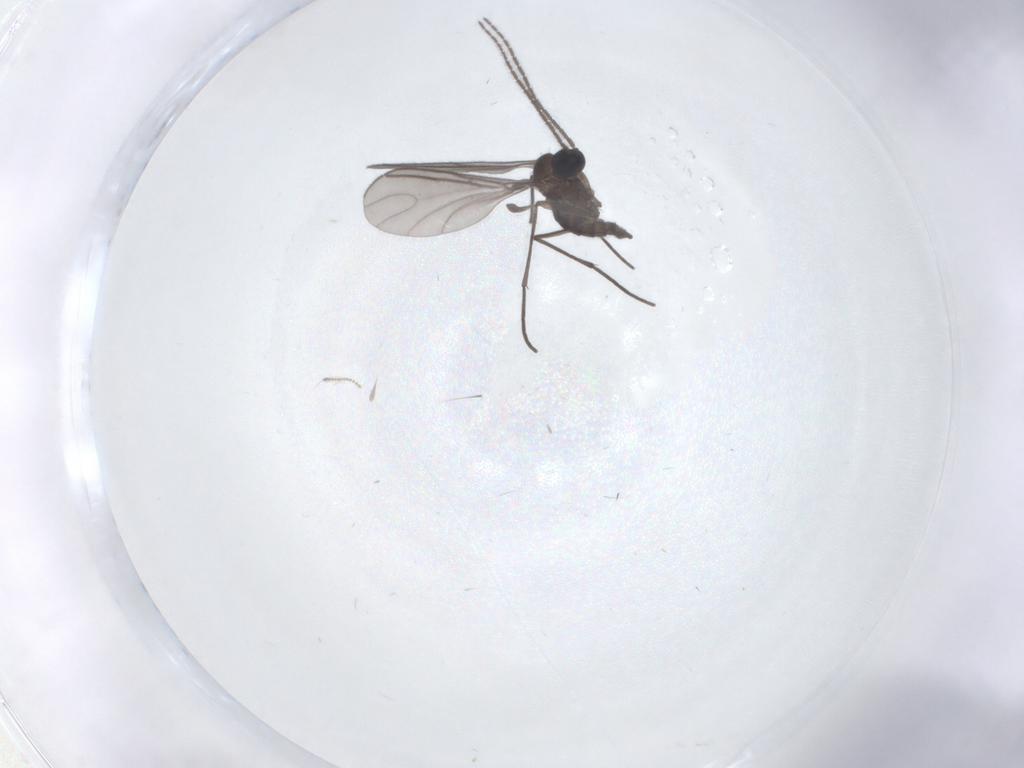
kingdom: Animalia
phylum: Arthropoda
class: Insecta
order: Diptera
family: Sciaridae
